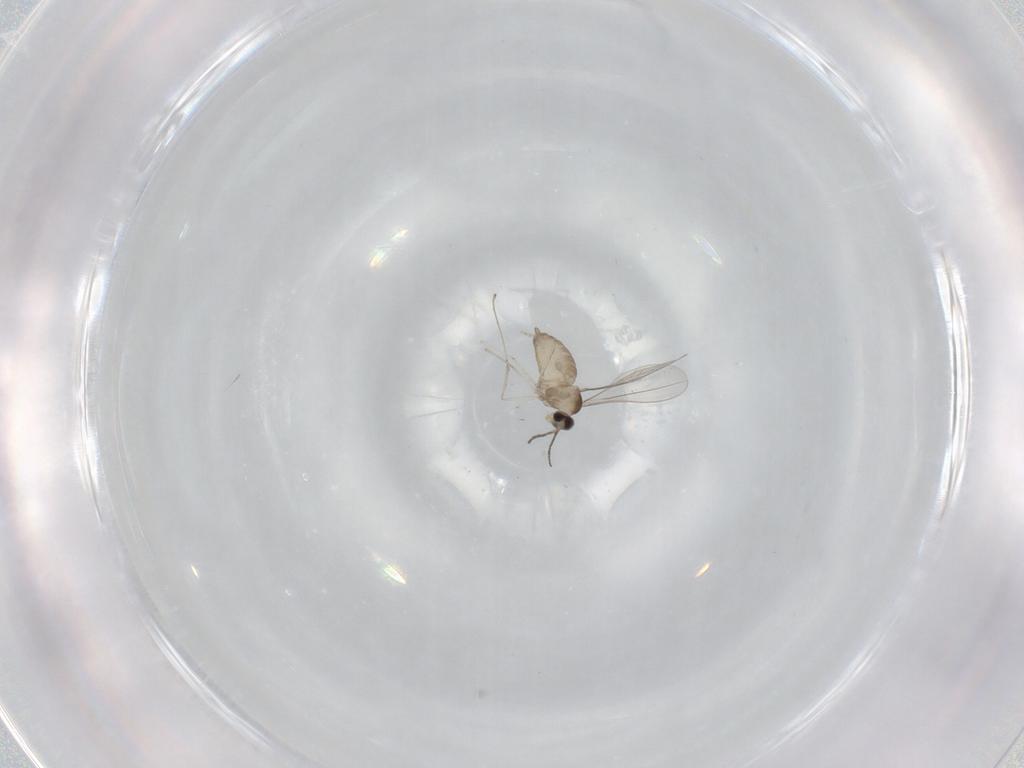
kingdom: Animalia
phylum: Arthropoda
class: Insecta
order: Diptera
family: Cecidomyiidae
